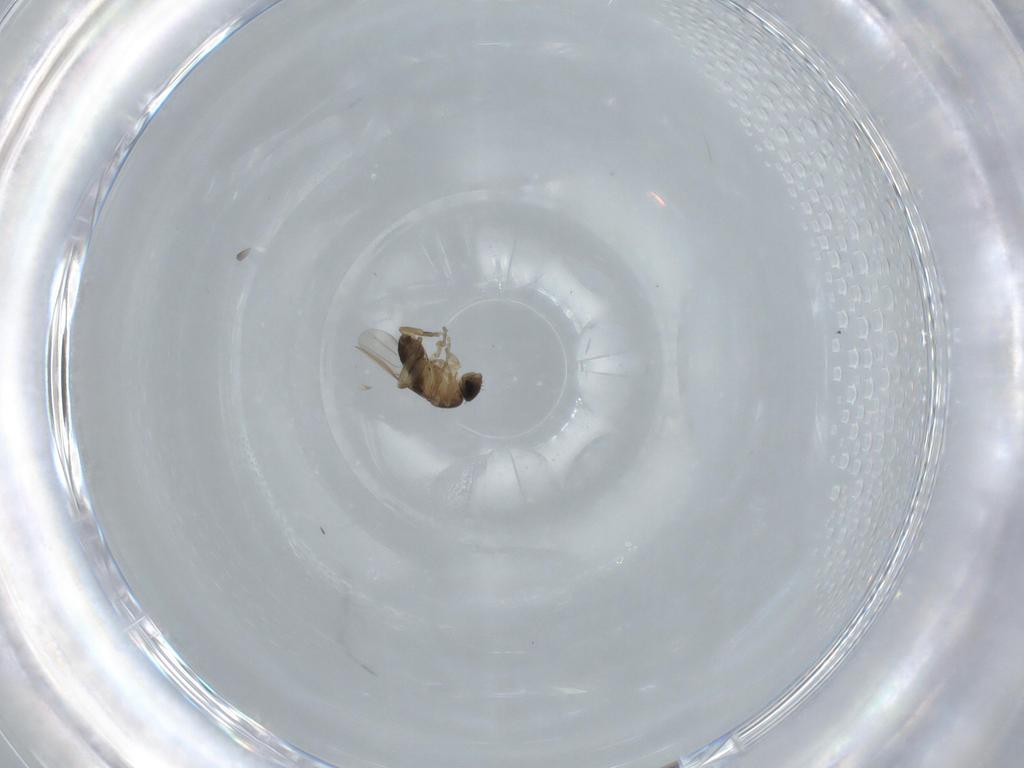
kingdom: Animalia
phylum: Arthropoda
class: Insecta
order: Diptera
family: Phoridae
